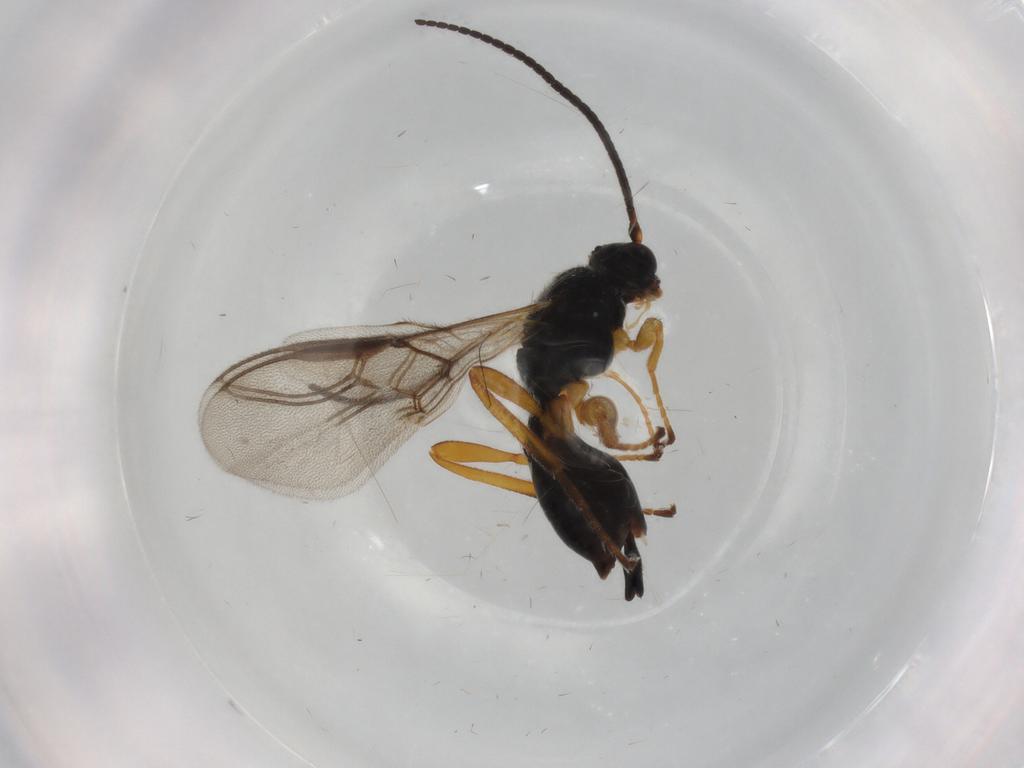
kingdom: Animalia
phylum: Arthropoda
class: Insecta
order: Hymenoptera
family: Braconidae
